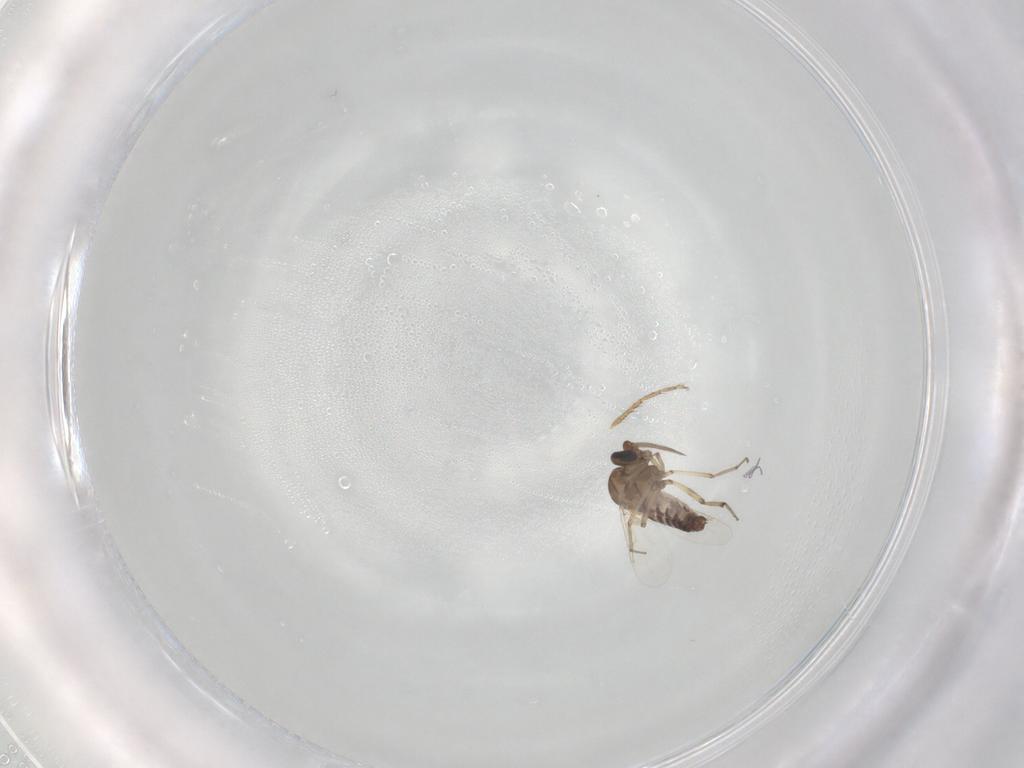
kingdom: Animalia
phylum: Arthropoda
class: Insecta
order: Diptera
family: Ceratopogonidae
